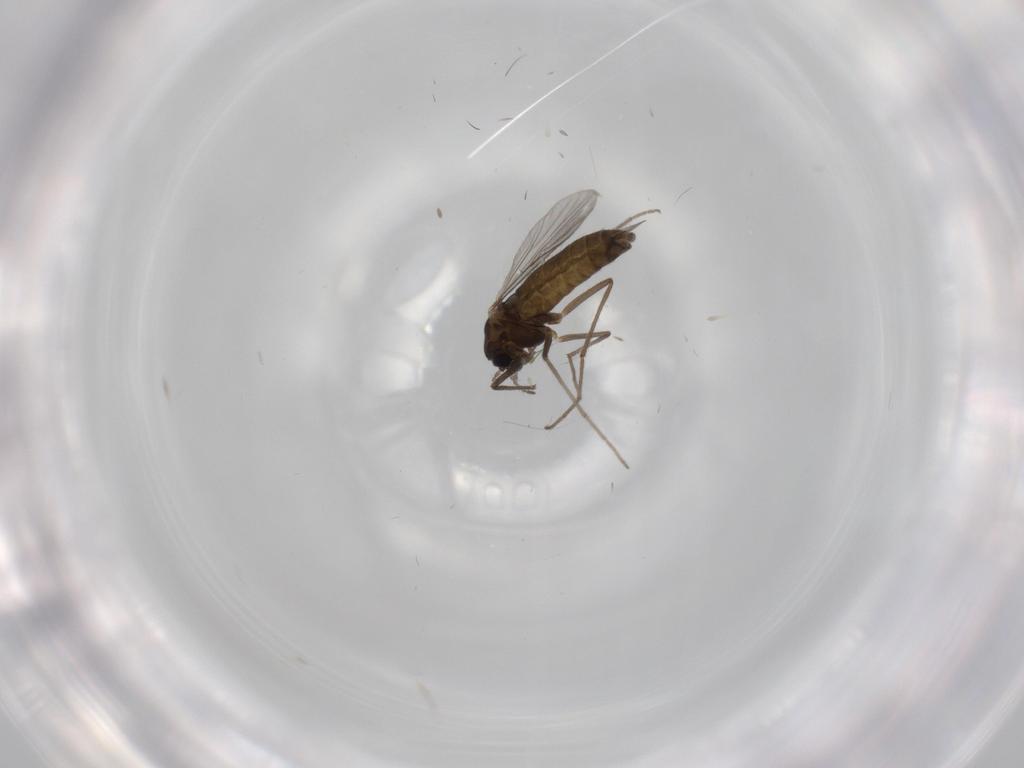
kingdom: Animalia
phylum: Arthropoda
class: Insecta
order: Diptera
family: Chironomidae
